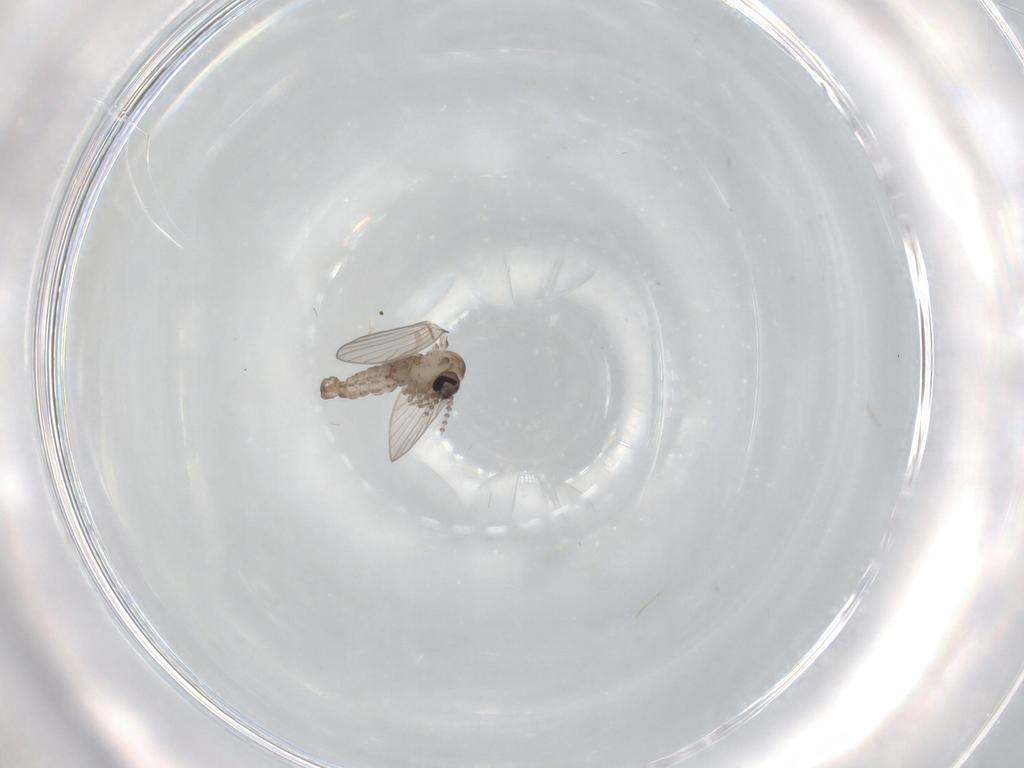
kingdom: Animalia
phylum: Arthropoda
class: Insecta
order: Diptera
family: Psychodidae
